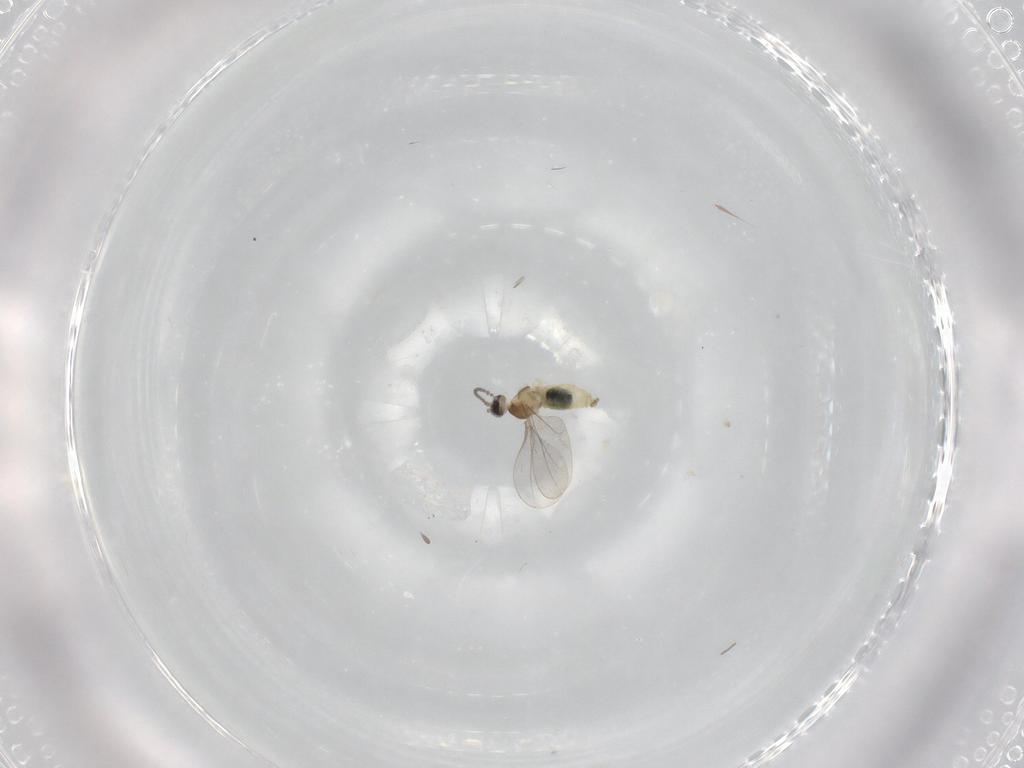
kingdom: Animalia
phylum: Arthropoda
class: Insecta
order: Diptera
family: Cecidomyiidae
